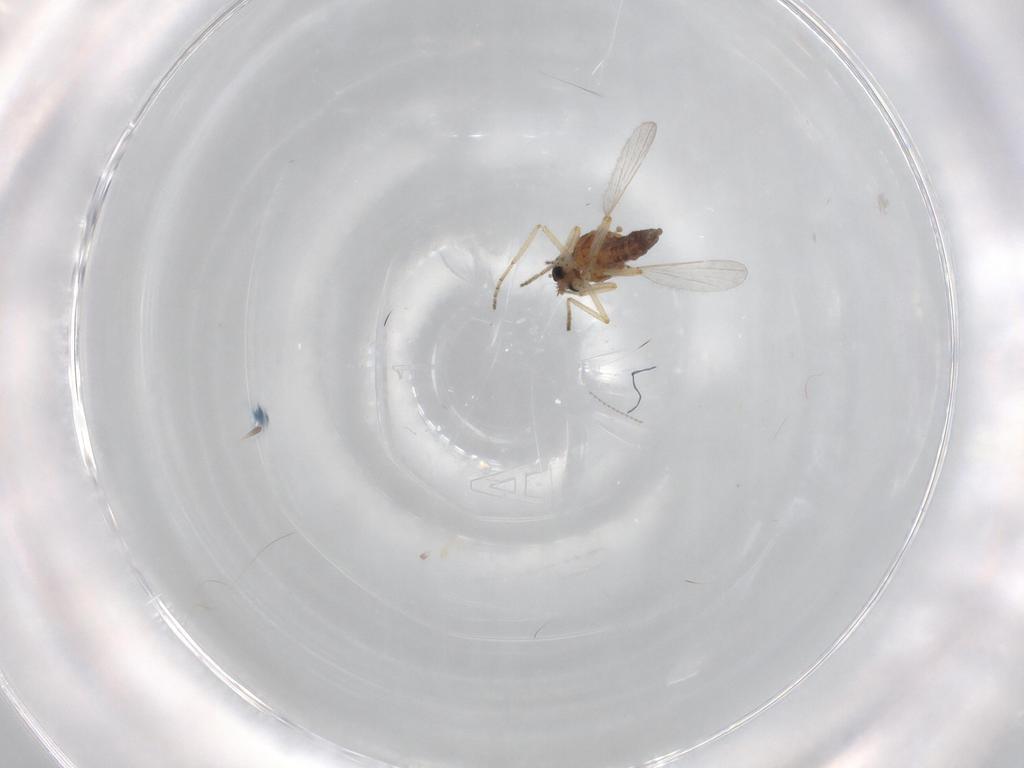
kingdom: Animalia
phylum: Arthropoda
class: Insecta
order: Diptera
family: Ceratopogonidae
